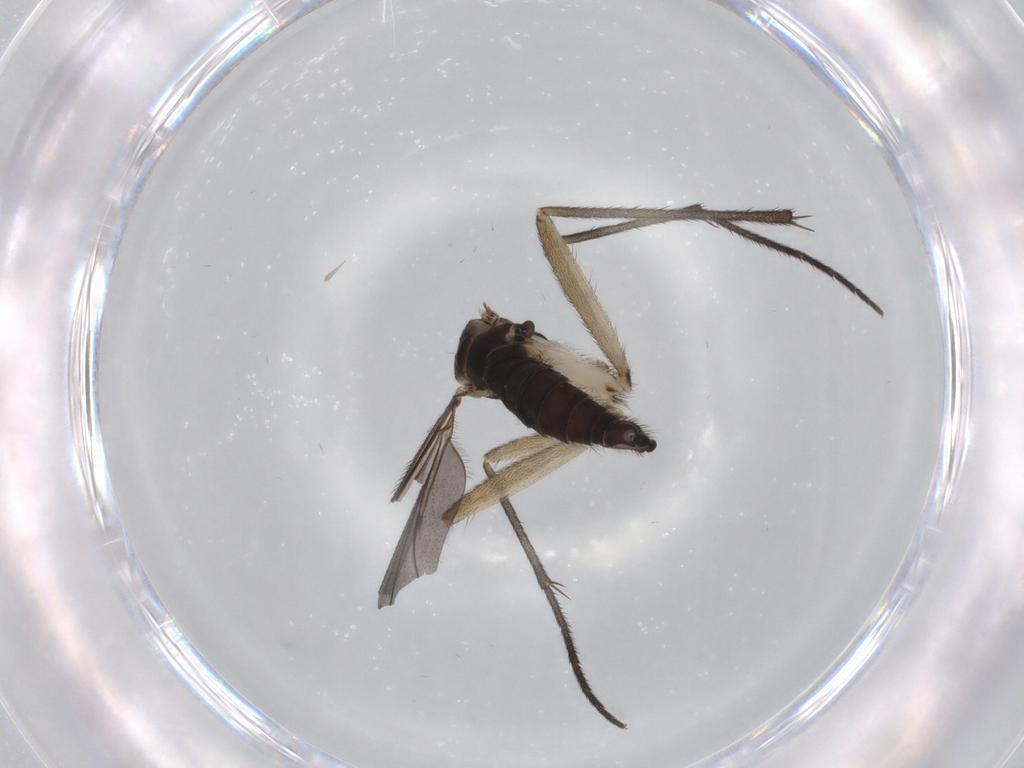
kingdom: Animalia
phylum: Arthropoda
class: Insecta
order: Diptera
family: Sciaridae
